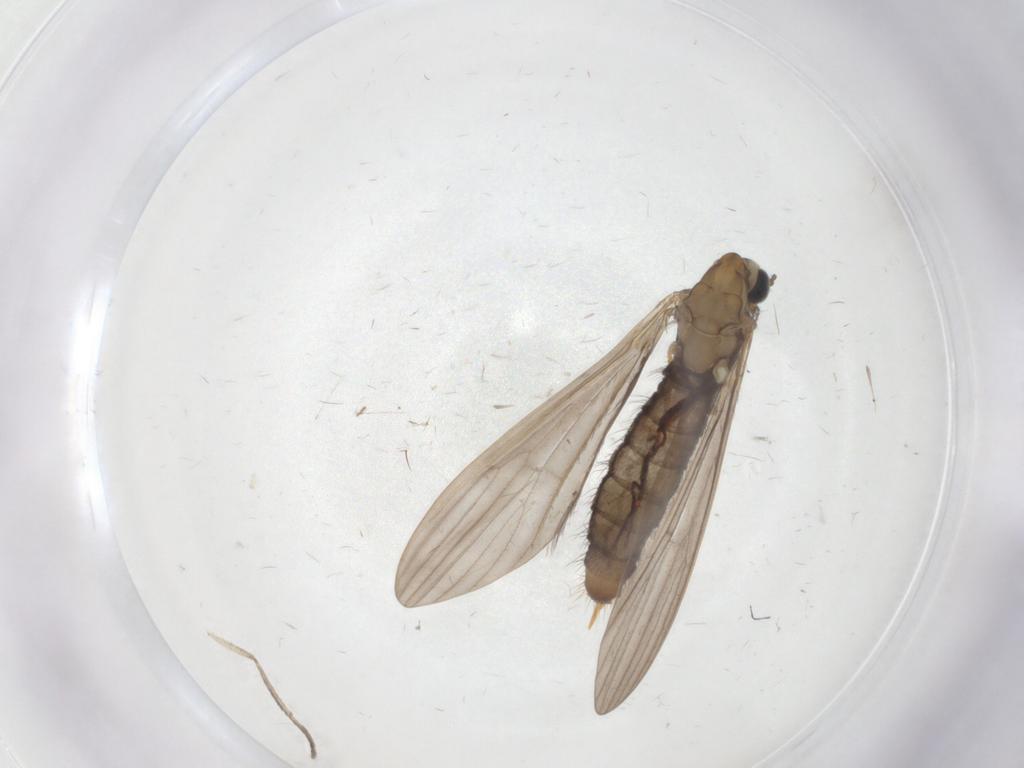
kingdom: Animalia
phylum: Arthropoda
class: Insecta
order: Diptera
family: Limoniidae
